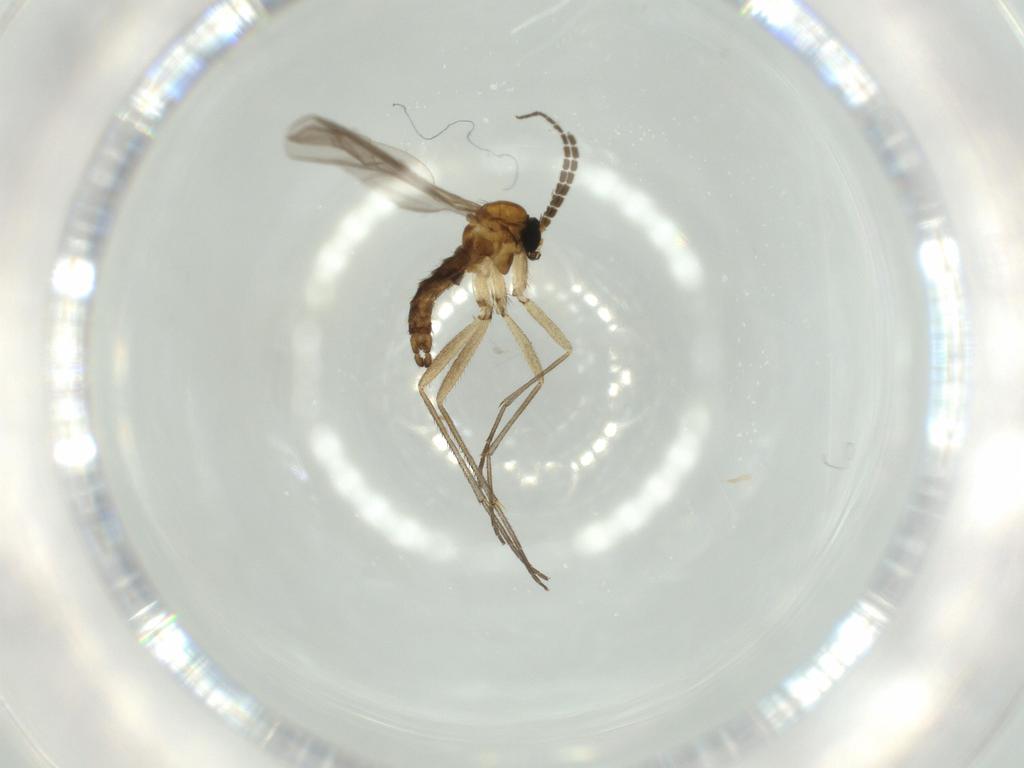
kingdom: Animalia
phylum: Arthropoda
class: Insecta
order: Diptera
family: Sciaridae
